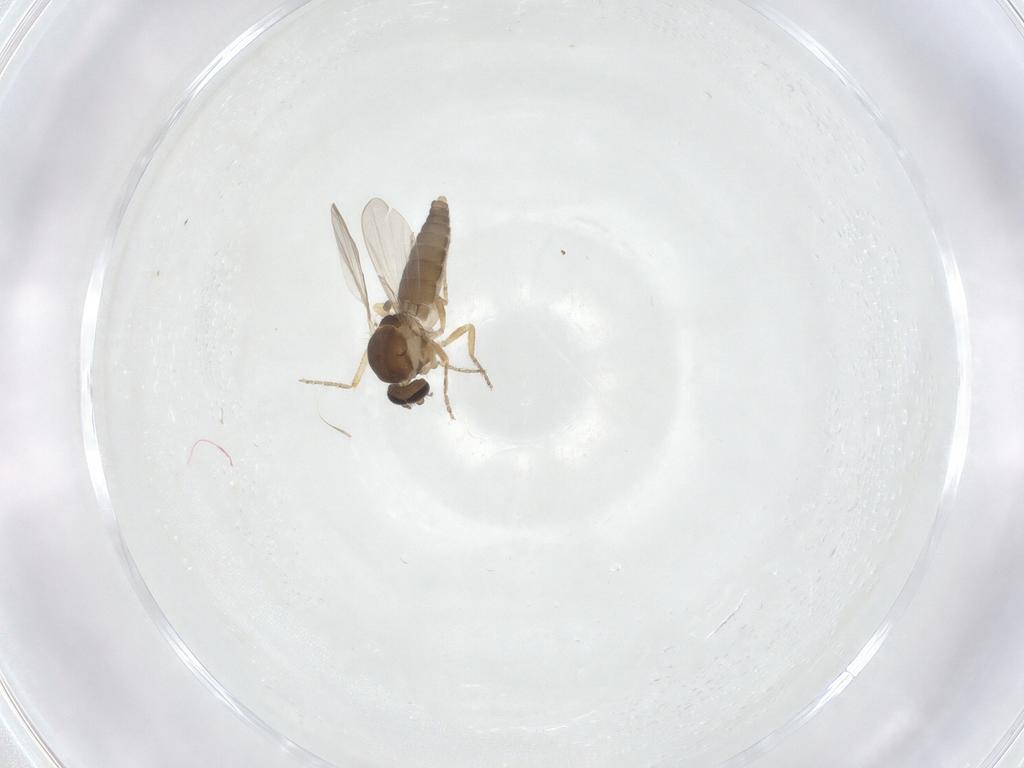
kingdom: Animalia
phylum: Arthropoda
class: Insecta
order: Diptera
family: Ceratopogonidae
